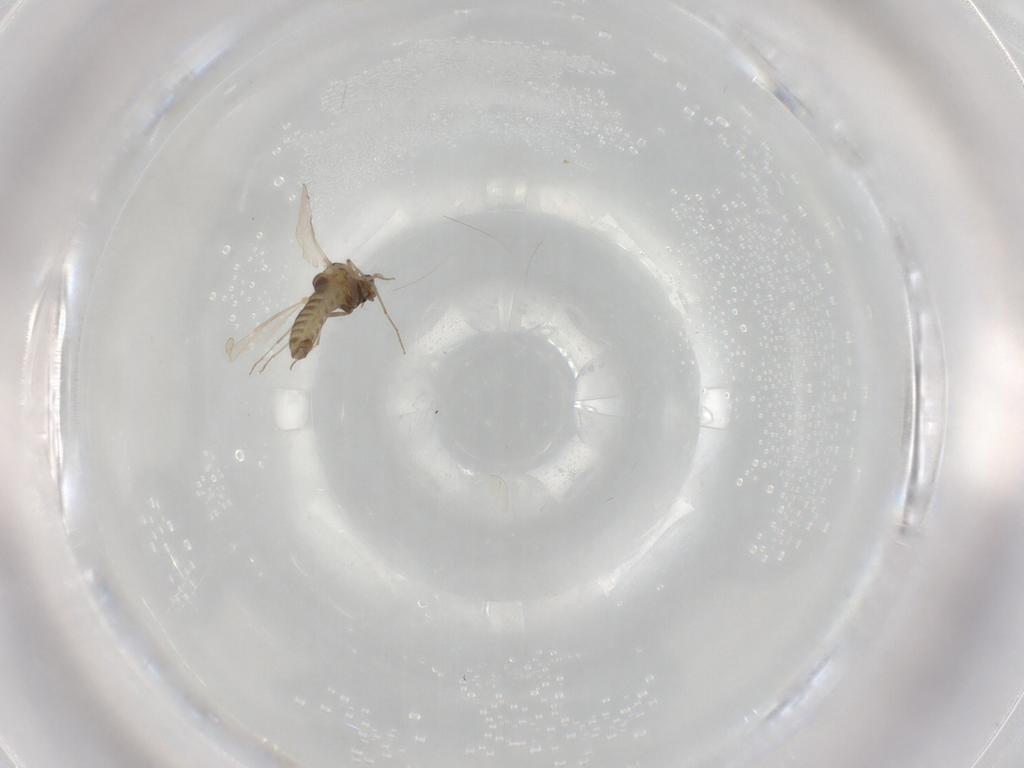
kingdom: Animalia
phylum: Arthropoda
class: Insecta
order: Diptera
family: Chironomidae
